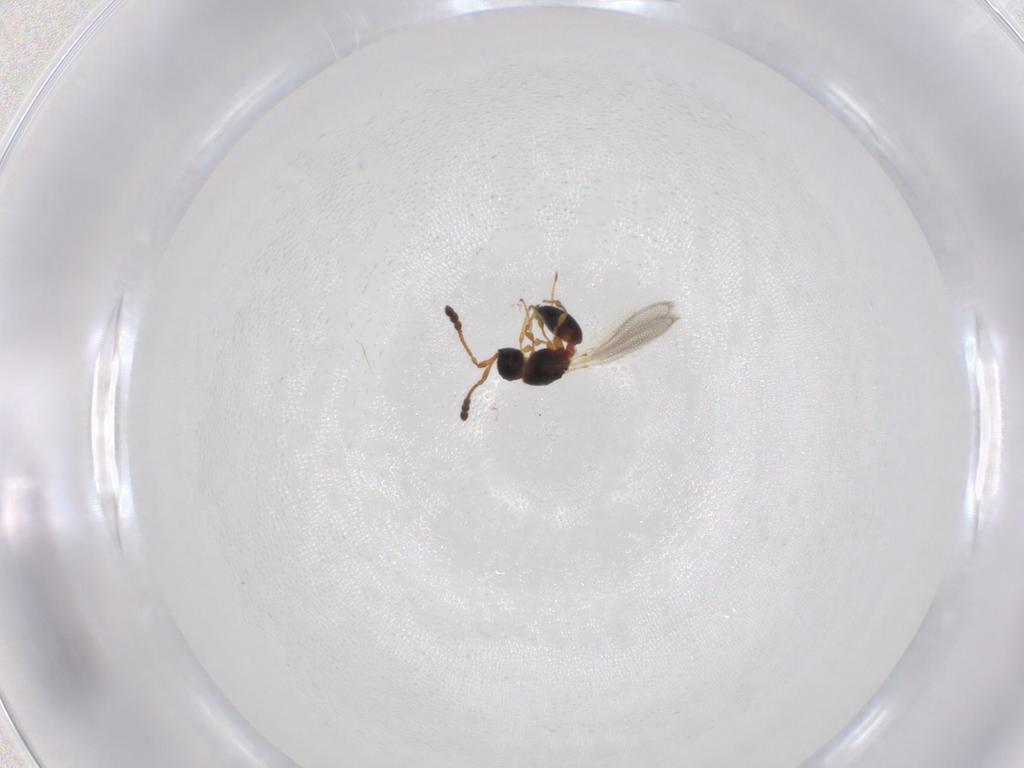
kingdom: Animalia
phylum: Arthropoda
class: Insecta
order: Hymenoptera
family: Diapriidae
